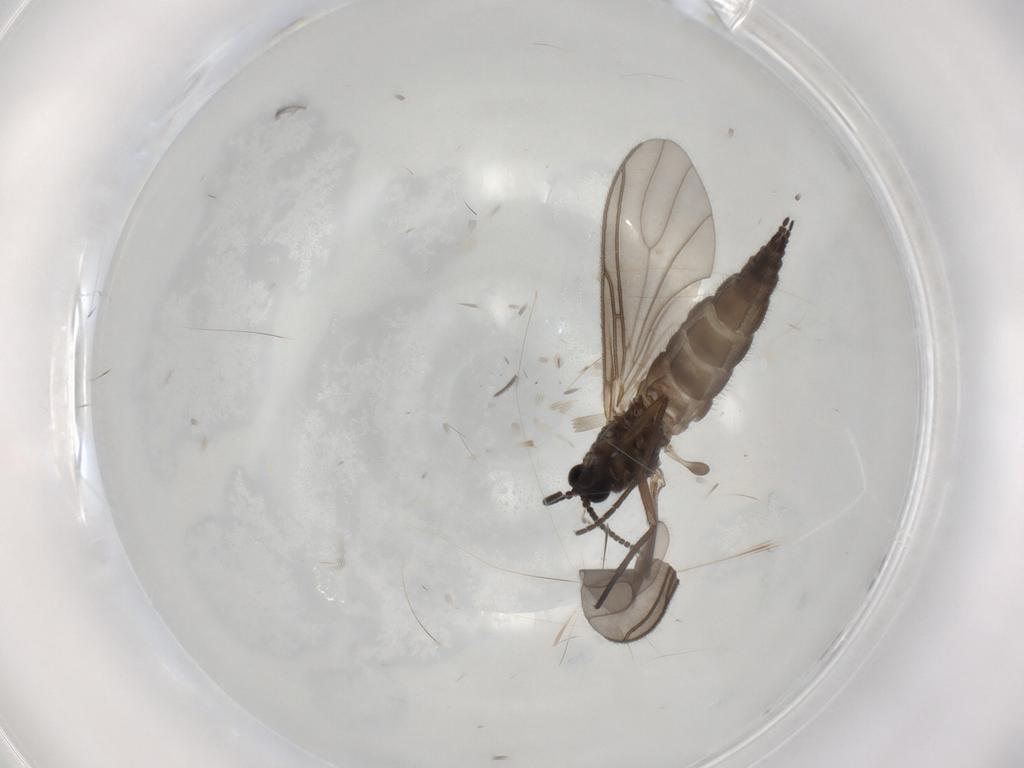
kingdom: Animalia
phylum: Arthropoda
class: Insecta
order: Diptera
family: Sciaridae
